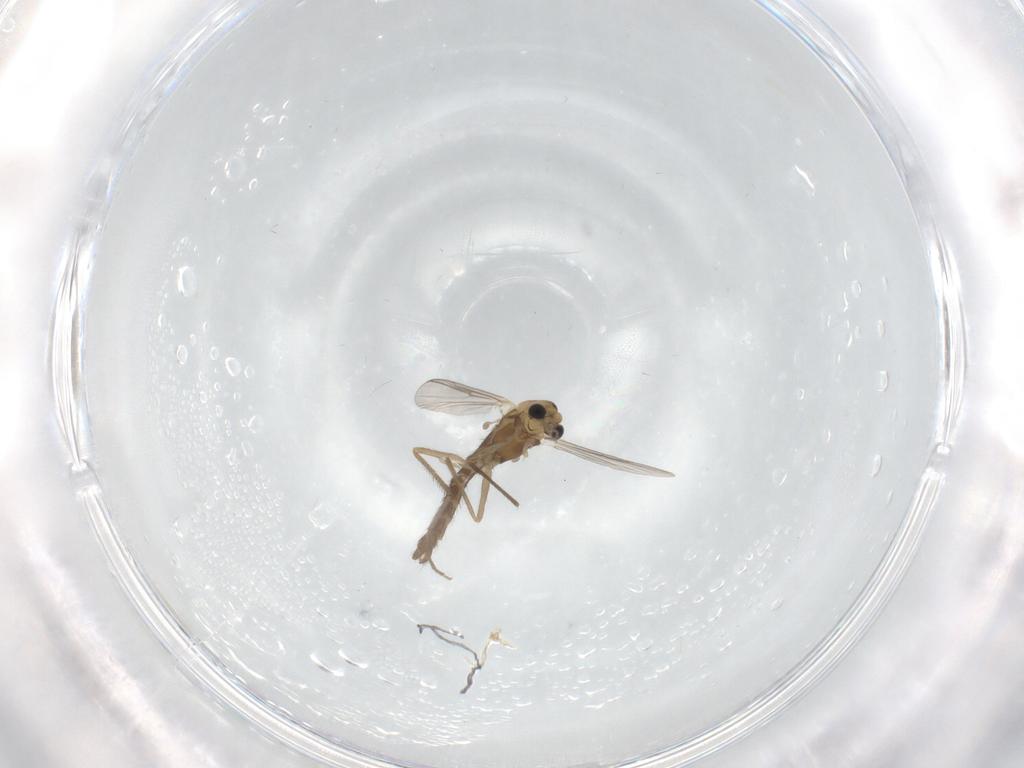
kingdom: Animalia
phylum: Arthropoda
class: Insecta
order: Diptera
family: Chironomidae
